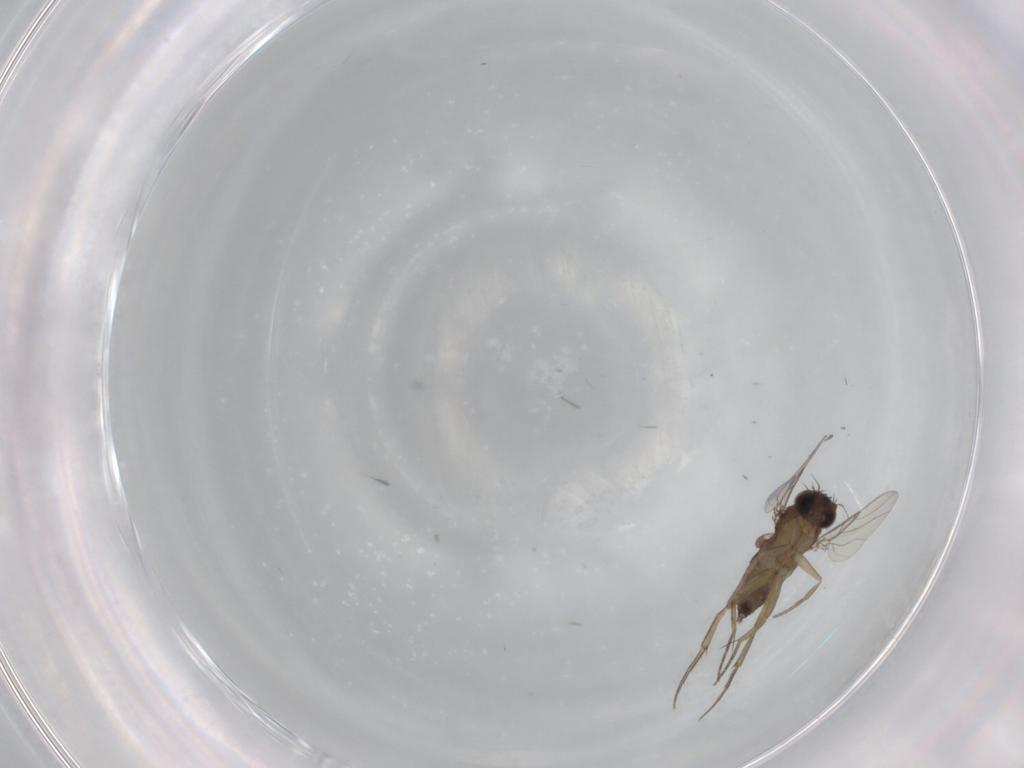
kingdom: Animalia
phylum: Arthropoda
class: Insecta
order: Diptera
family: Phoridae
